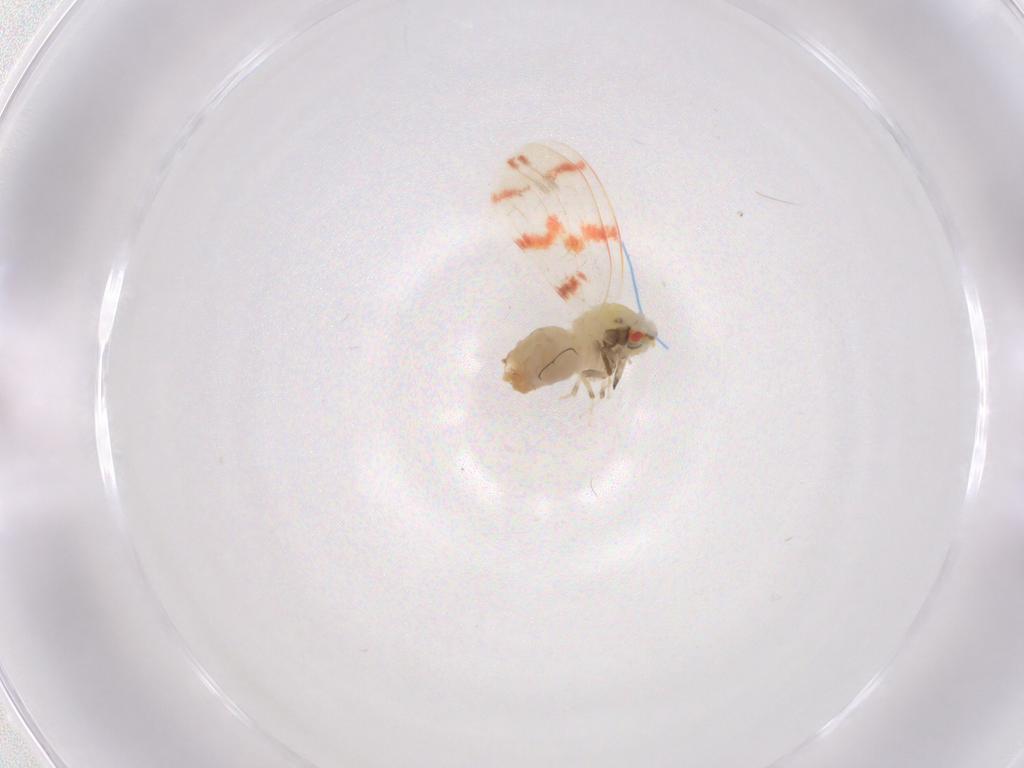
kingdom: Animalia
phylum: Arthropoda
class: Insecta
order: Hemiptera
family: Aleyrodidae
